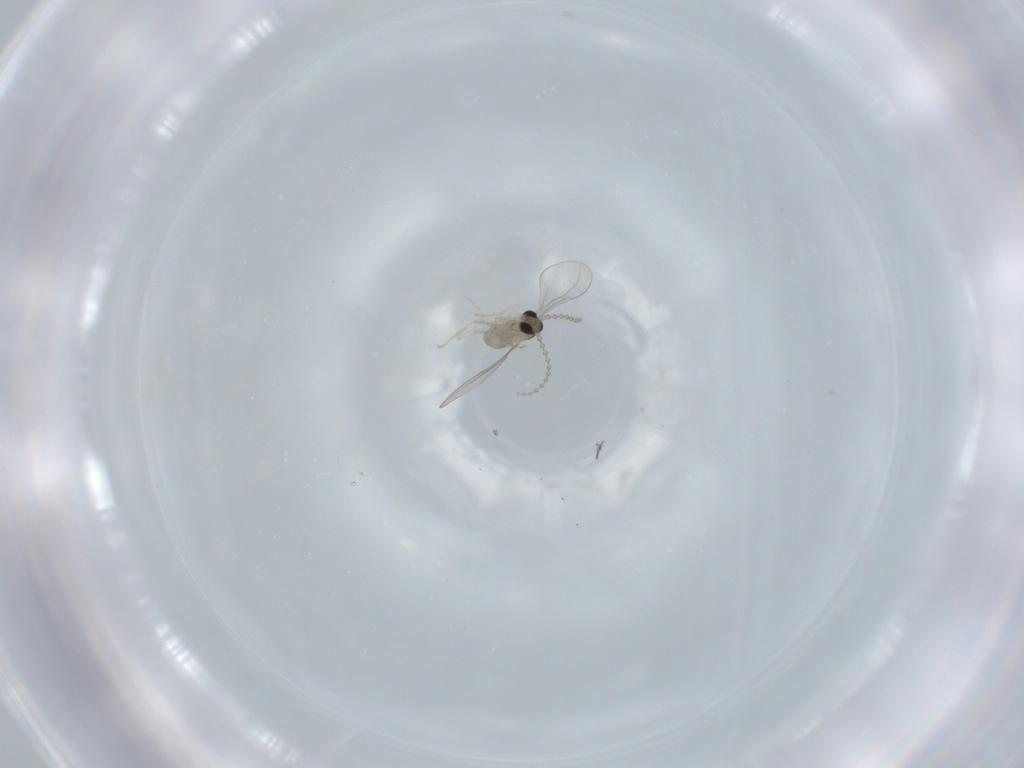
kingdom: Animalia
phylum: Arthropoda
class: Insecta
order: Diptera
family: Cecidomyiidae
